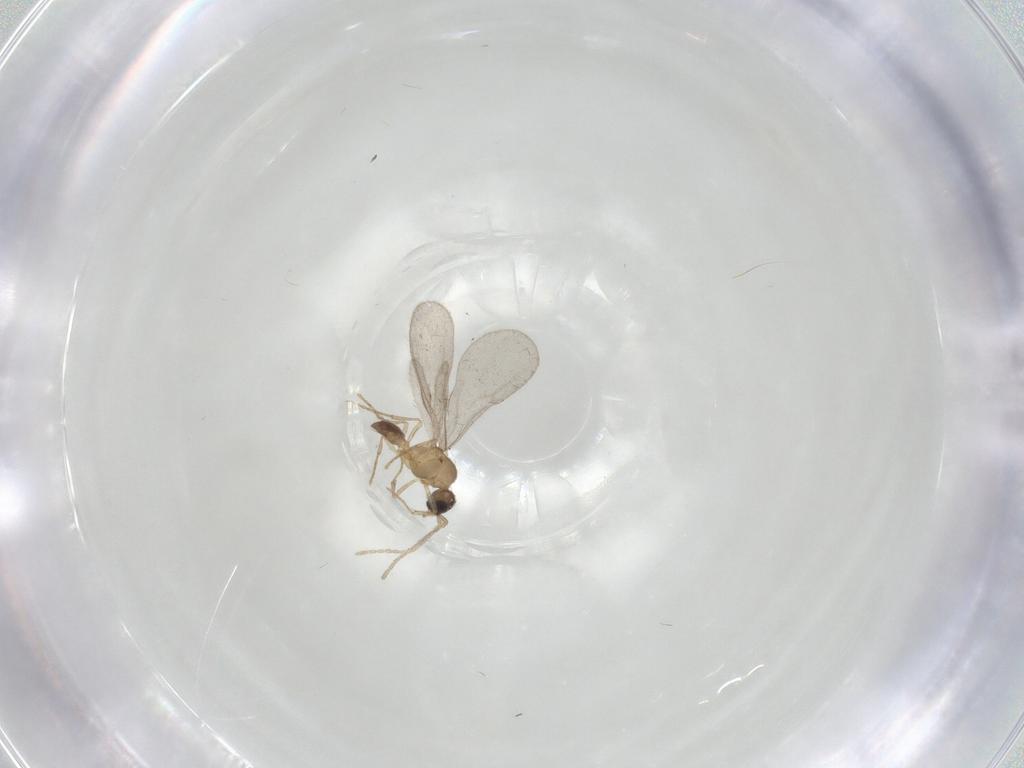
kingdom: Animalia
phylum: Arthropoda
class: Insecta
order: Hymenoptera
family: Formicidae
